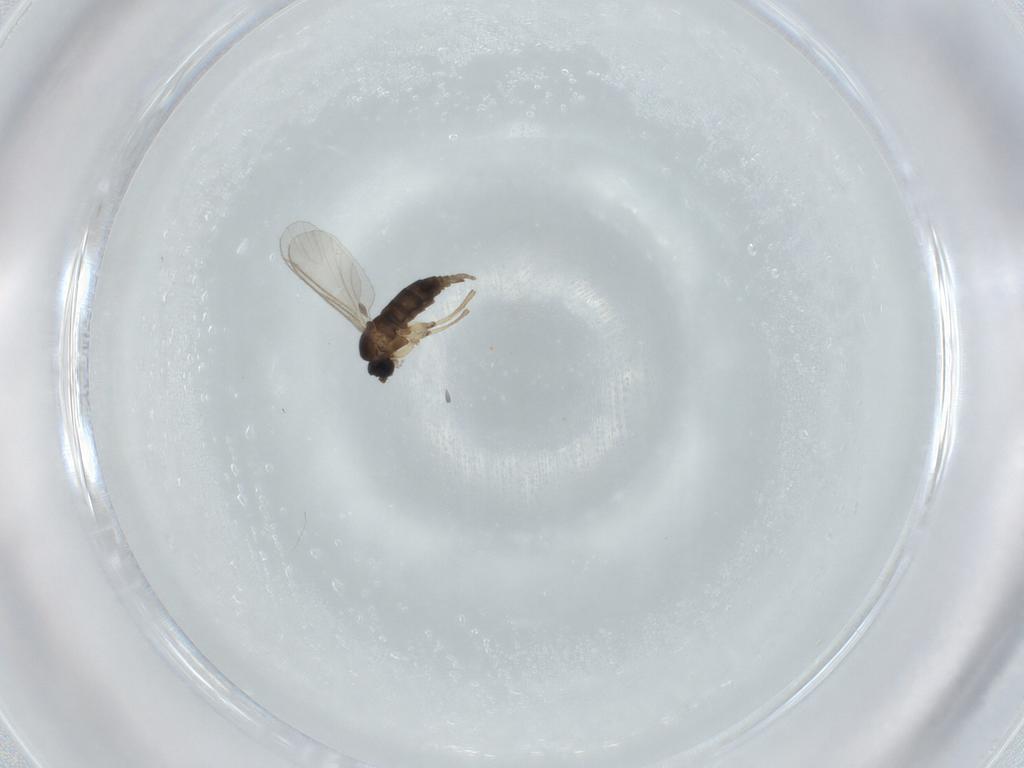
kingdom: Animalia
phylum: Arthropoda
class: Insecta
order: Diptera
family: Sciaridae
